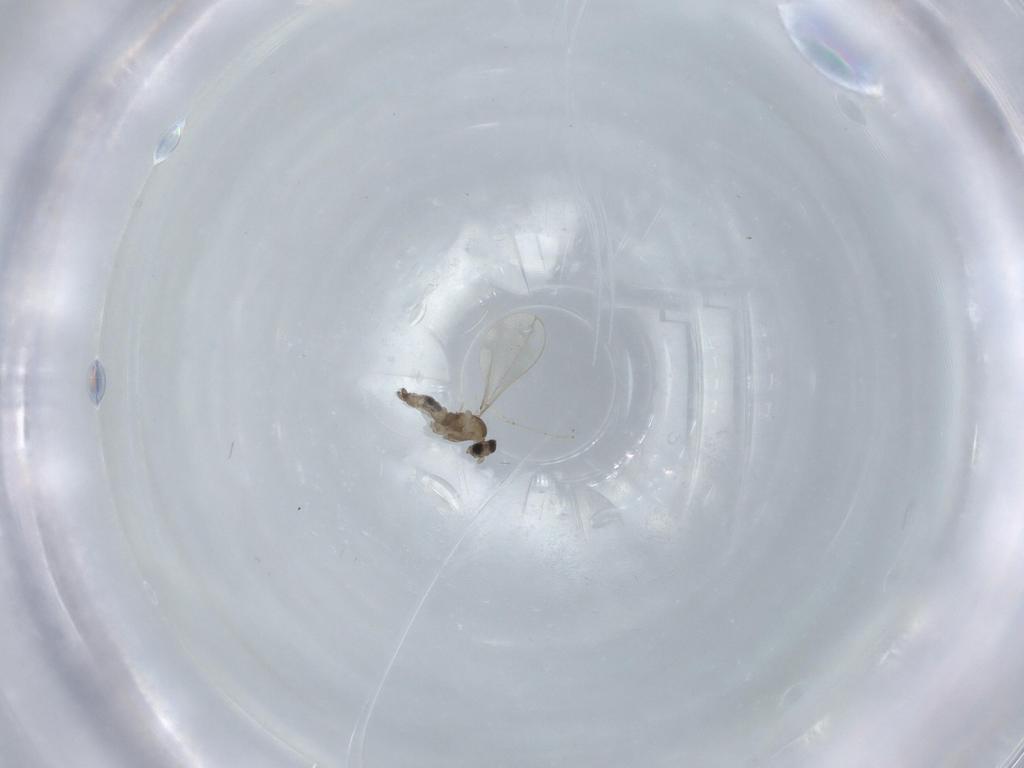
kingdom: Animalia
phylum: Arthropoda
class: Insecta
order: Diptera
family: Cecidomyiidae
